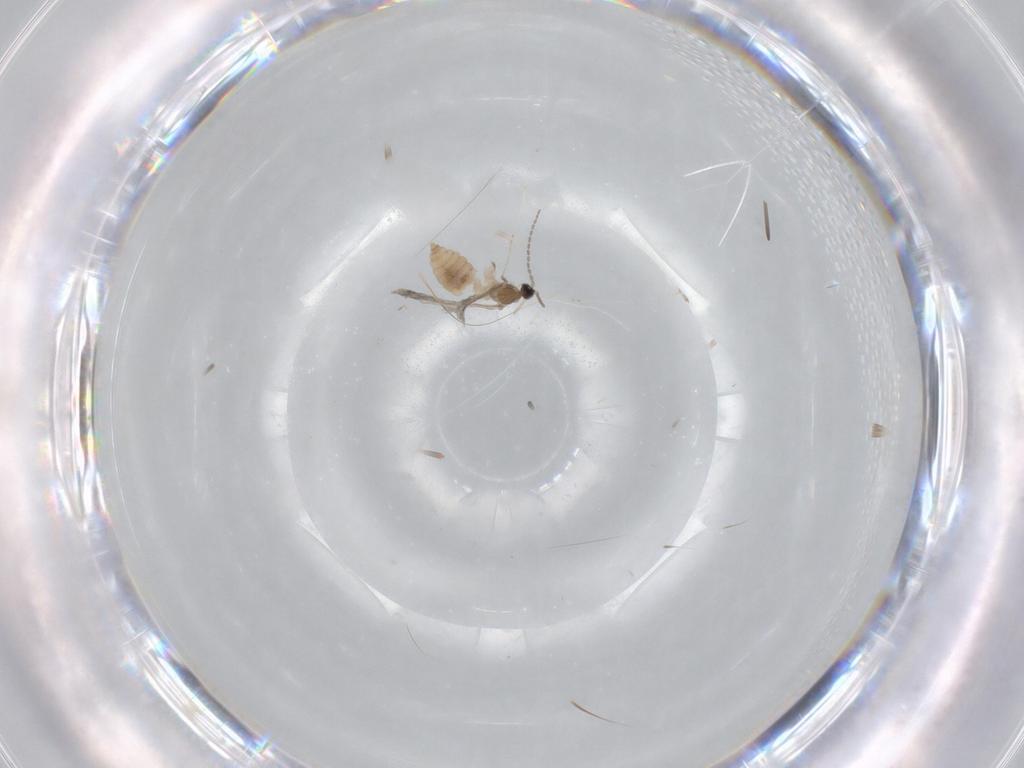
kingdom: Animalia
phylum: Arthropoda
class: Insecta
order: Diptera
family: Cecidomyiidae
